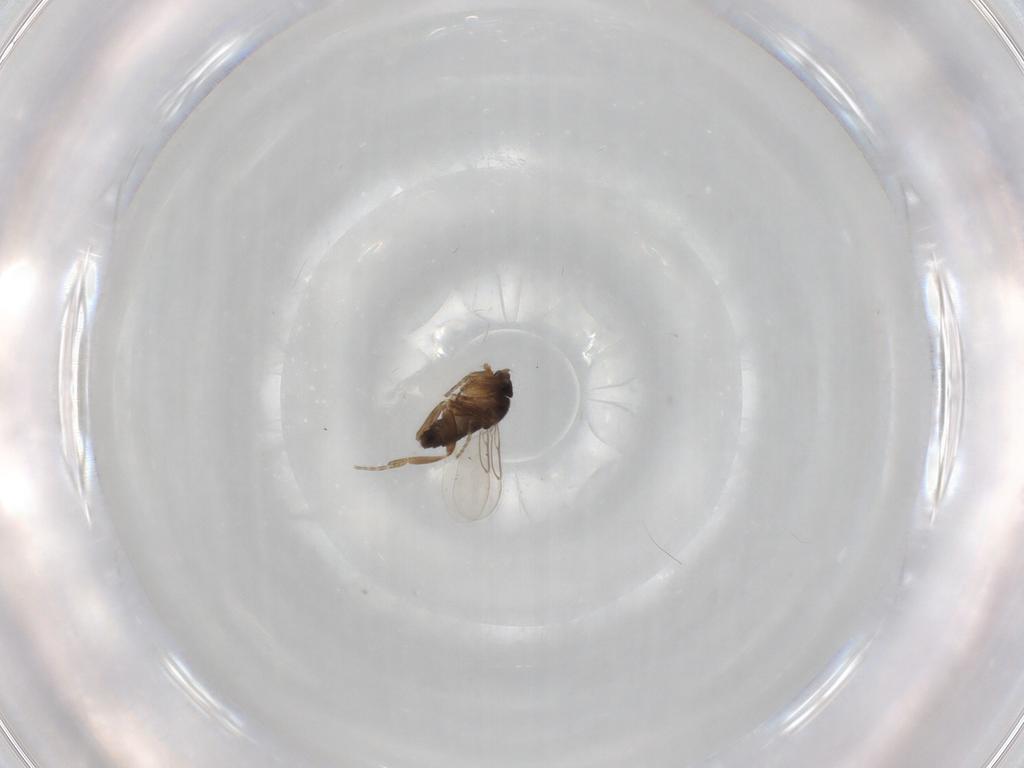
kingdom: Animalia
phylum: Arthropoda
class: Insecta
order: Diptera
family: Phoridae
